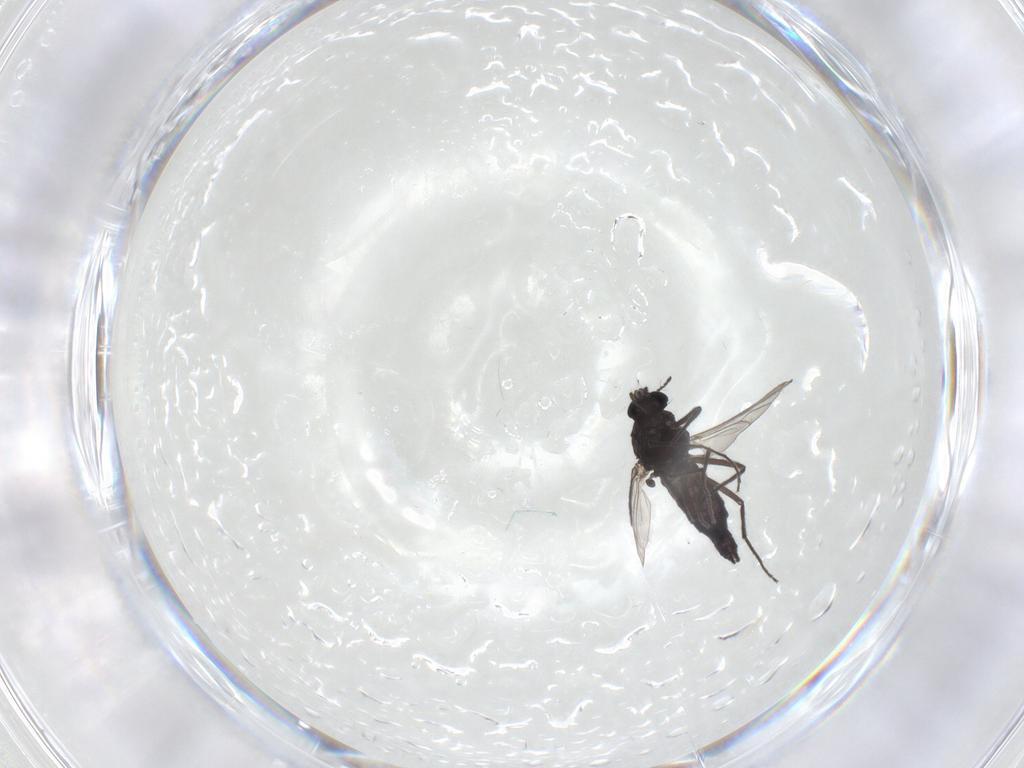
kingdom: Animalia
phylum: Arthropoda
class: Insecta
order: Diptera
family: Chironomidae
